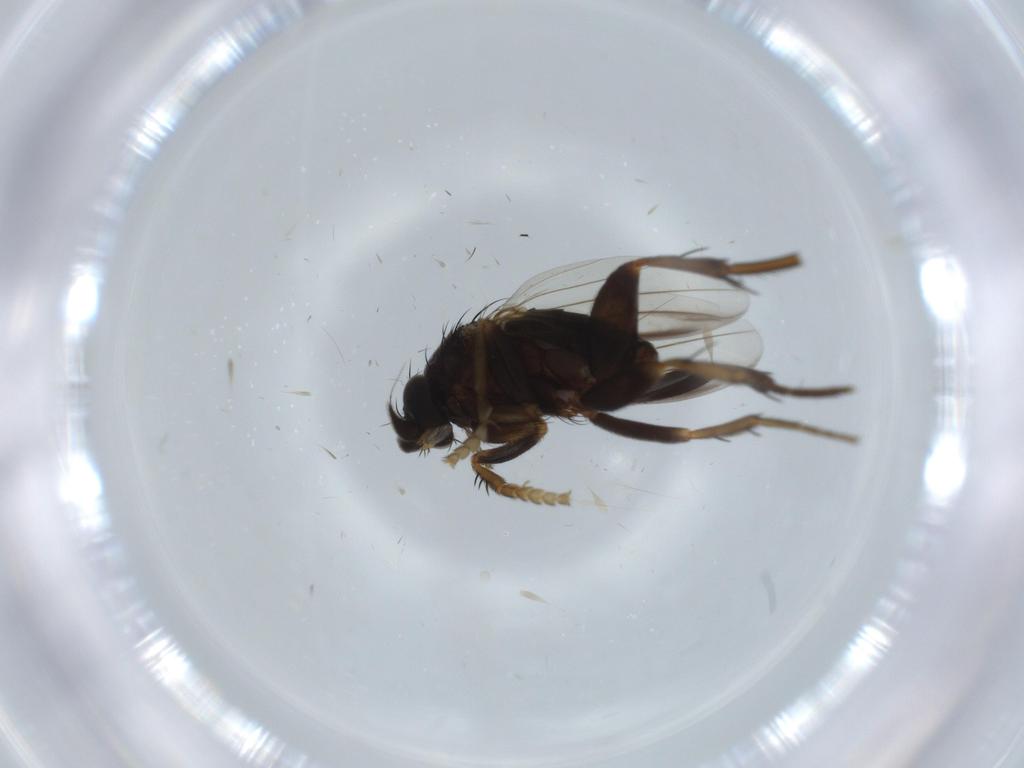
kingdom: Animalia
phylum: Arthropoda
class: Insecta
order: Diptera
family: Phoridae
